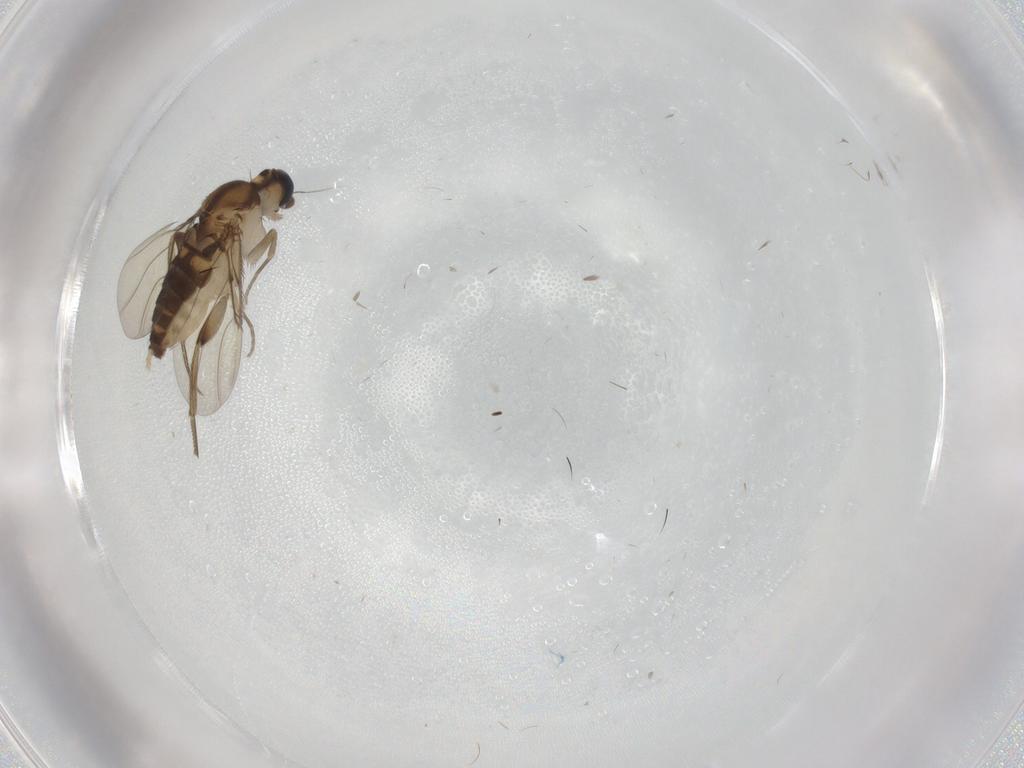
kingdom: Animalia
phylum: Arthropoda
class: Insecta
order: Diptera
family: Phoridae
